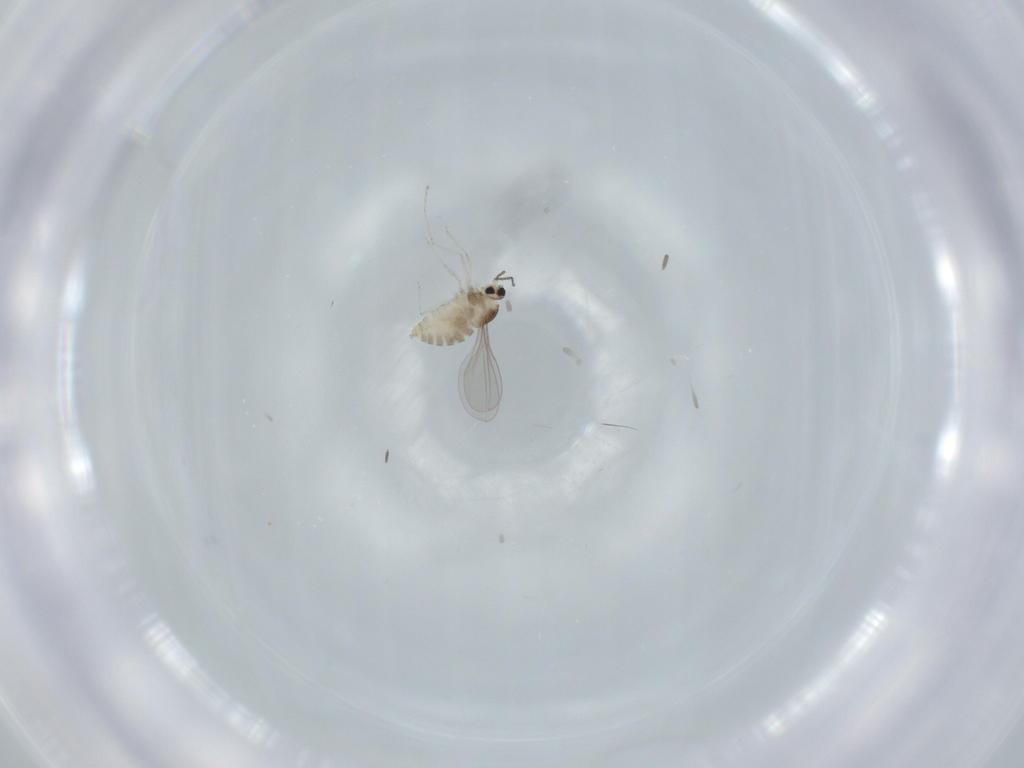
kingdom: Animalia
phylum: Arthropoda
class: Insecta
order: Diptera
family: Cecidomyiidae
